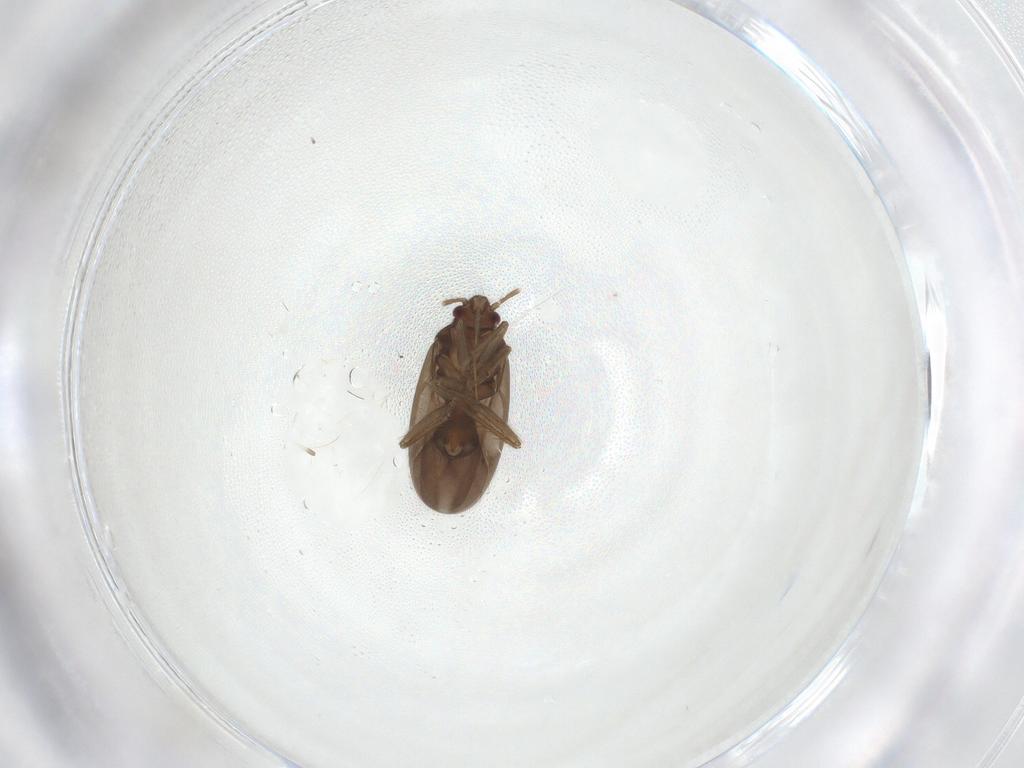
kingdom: Animalia
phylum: Arthropoda
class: Insecta
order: Hemiptera
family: Ceratocombidae
